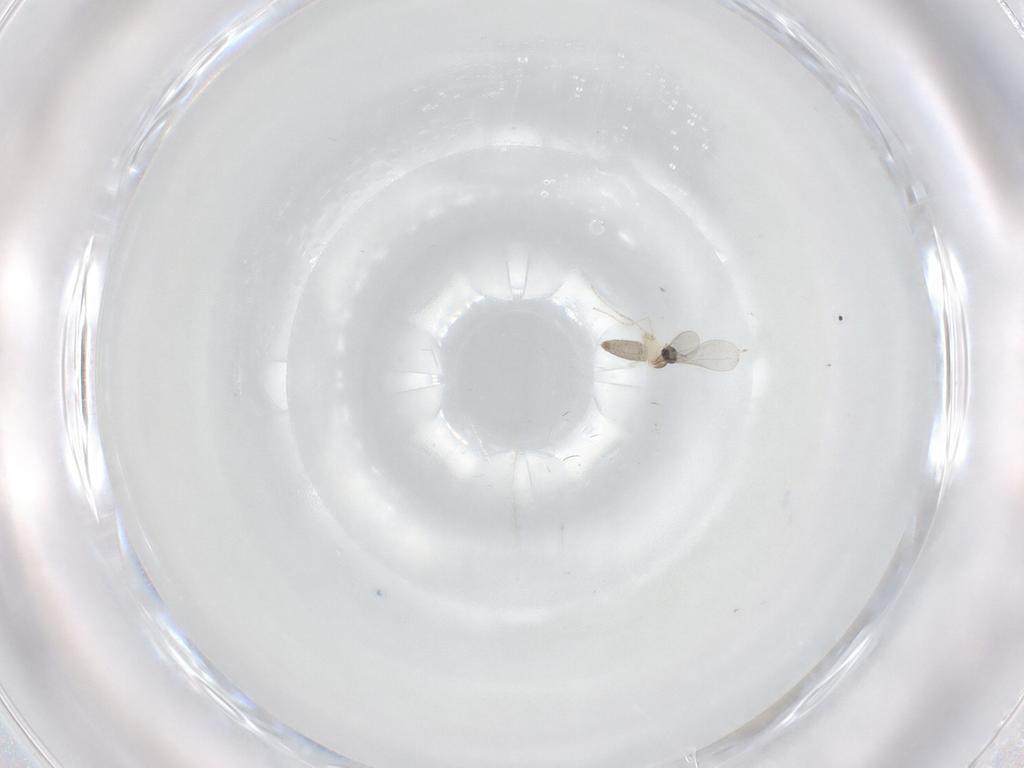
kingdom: Animalia
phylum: Arthropoda
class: Insecta
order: Diptera
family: Cecidomyiidae
